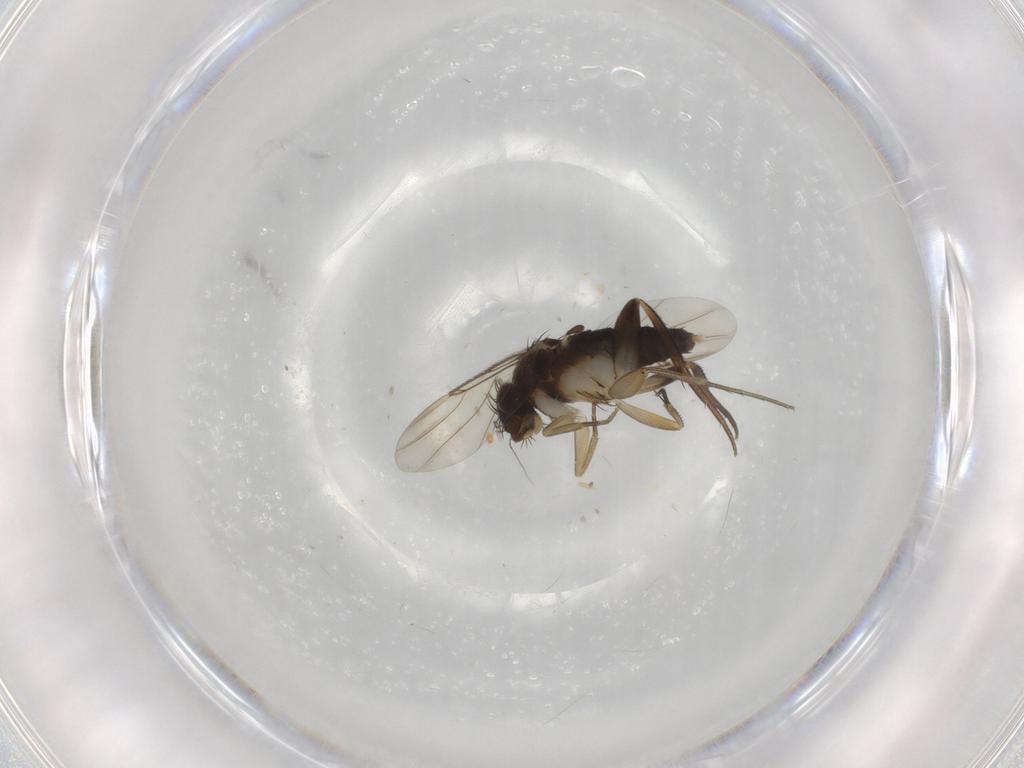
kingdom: Animalia
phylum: Arthropoda
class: Insecta
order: Diptera
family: Phoridae
